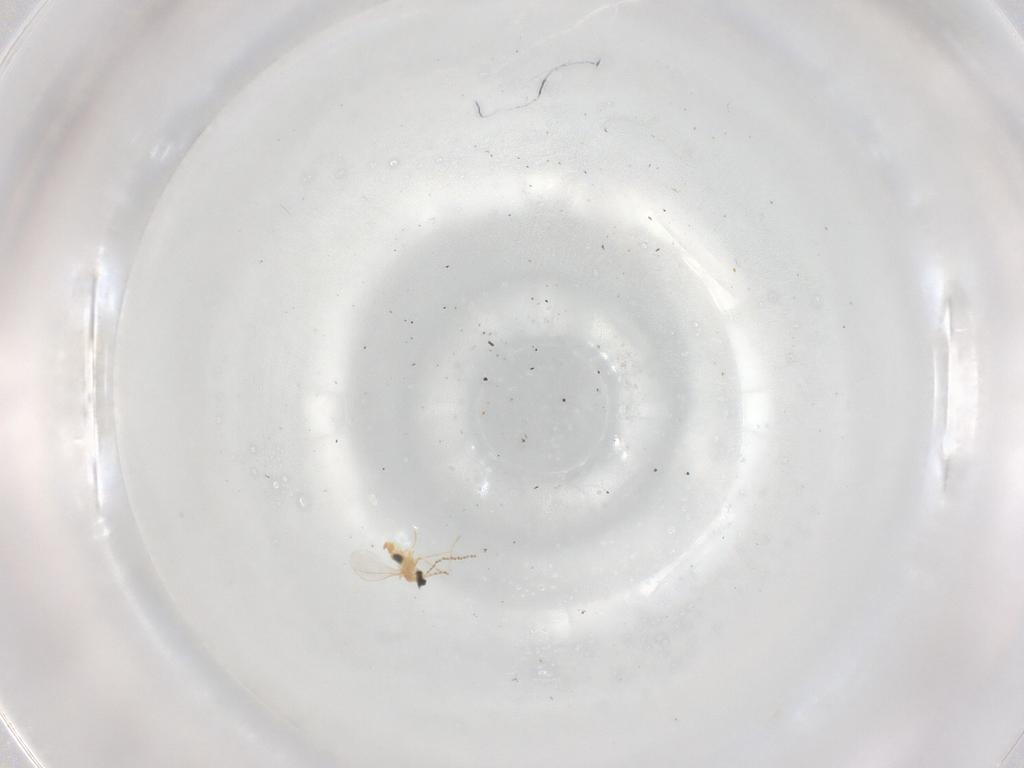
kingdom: Animalia
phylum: Arthropoda
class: Insecta
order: Diptera
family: Cecidomyiidae
